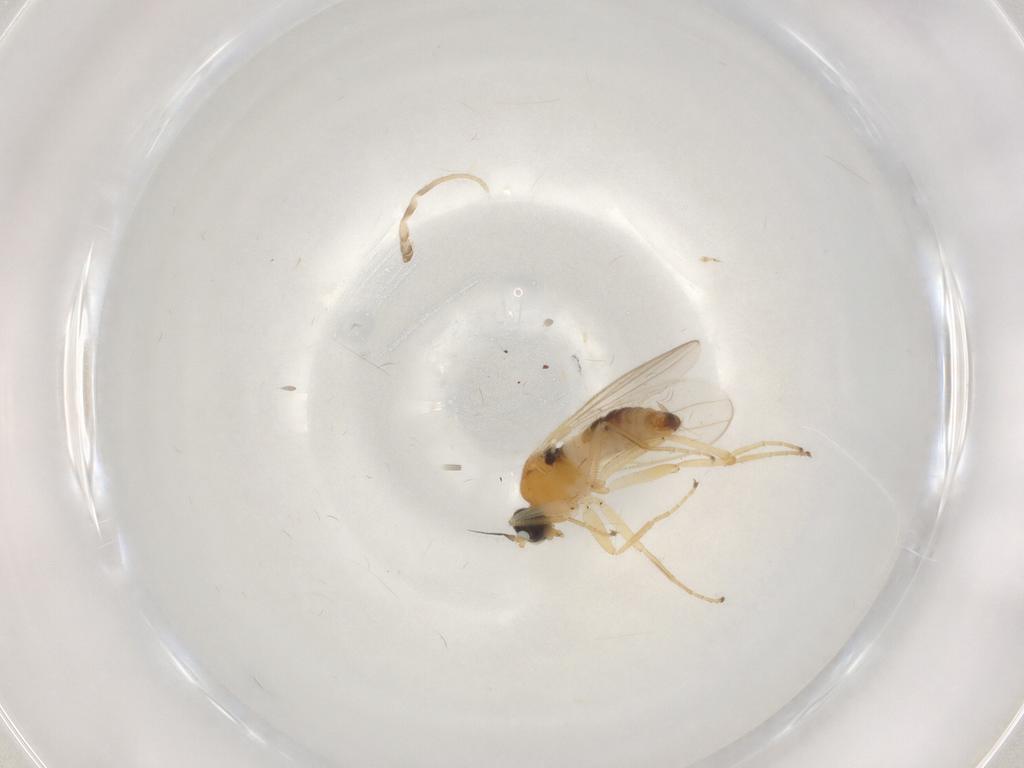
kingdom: Animalia
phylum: Arthropoda
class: Insecta
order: Diptera
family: Hybotidae
